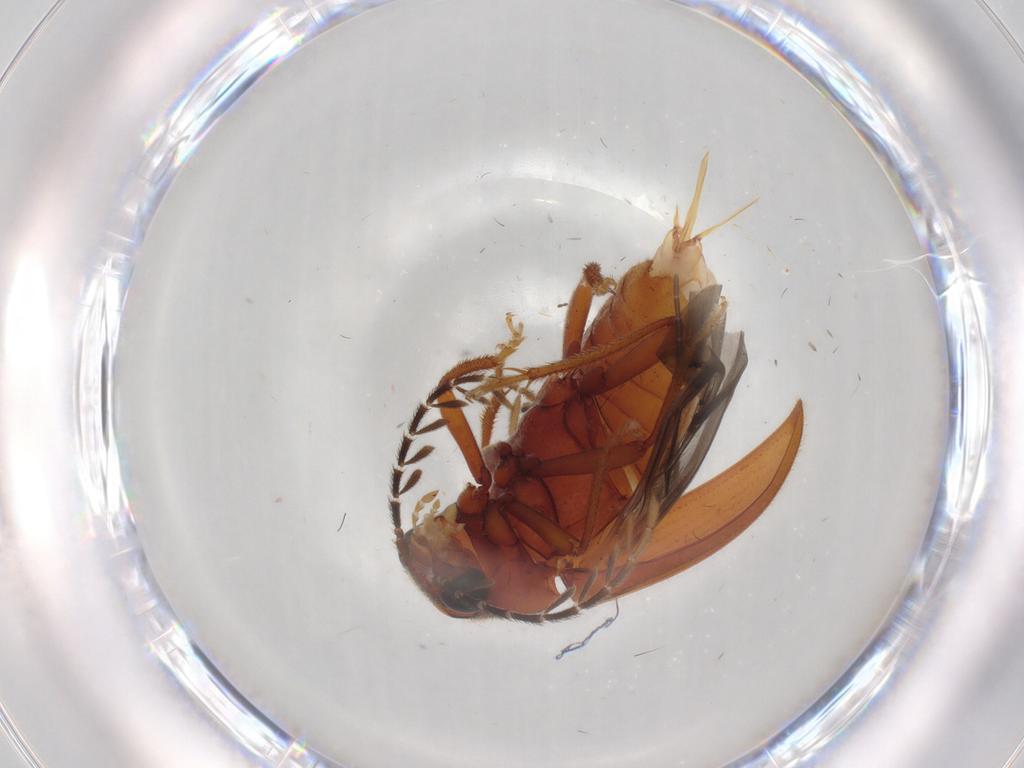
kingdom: Animalia
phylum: Arthropoda
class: Insecta
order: Coleoptera
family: Ptilodactylidae
